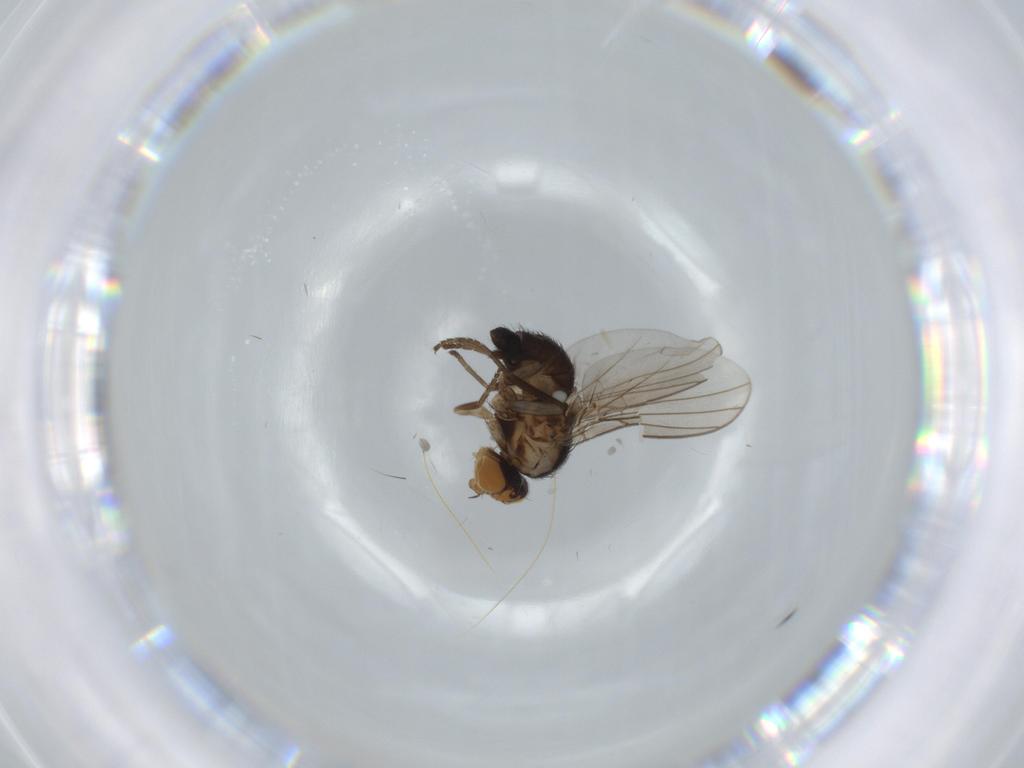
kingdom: Animalia
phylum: Arthropoda
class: Insecta
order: Diptera
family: Agromyzidae
